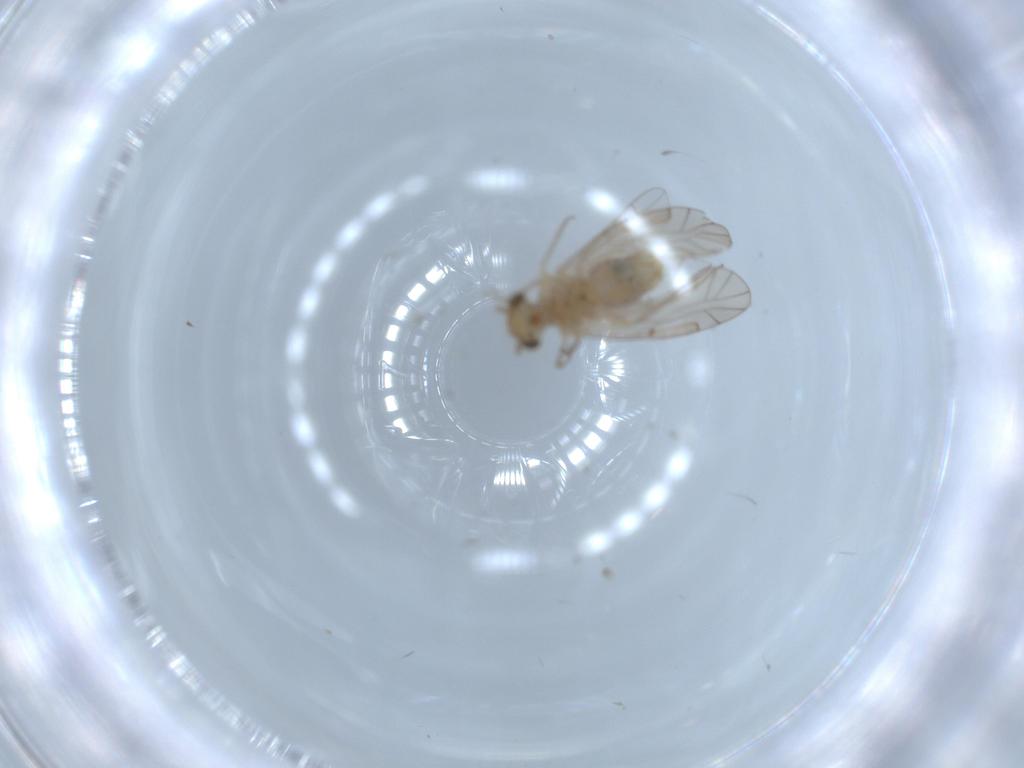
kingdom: Animalia
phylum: Arthropoda
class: Insecta
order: Psocodea
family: Lachesillidae
